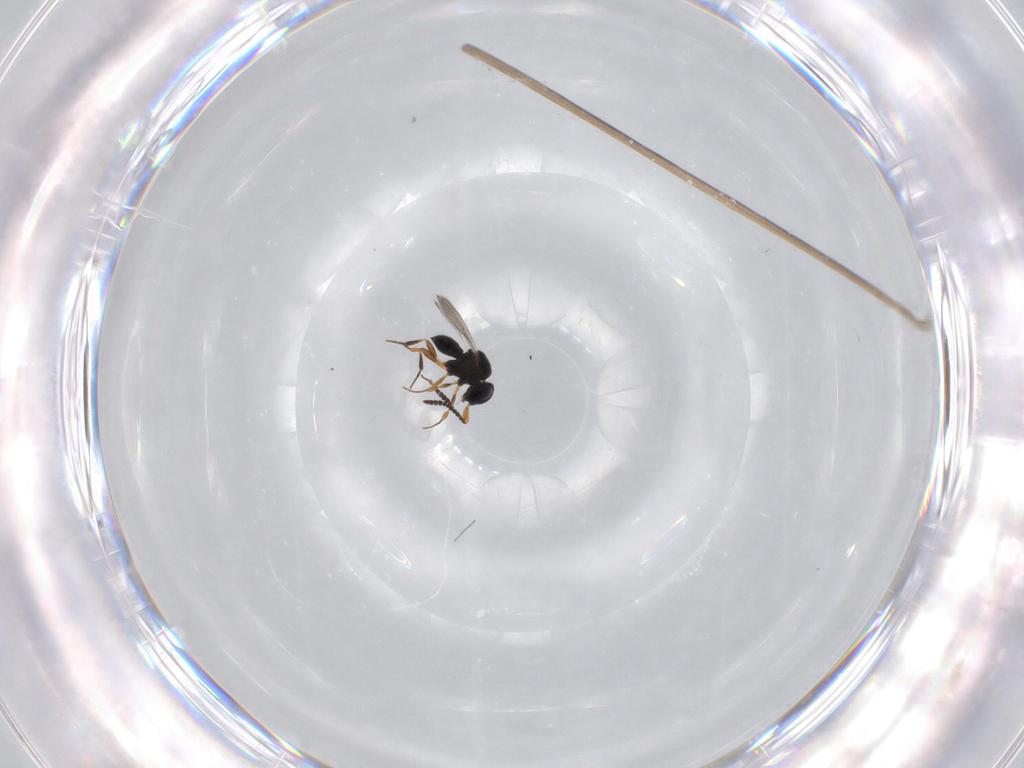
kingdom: Animalia
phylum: Arthropoda
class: Insecta
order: Hymenoptera
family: Scelionidae
